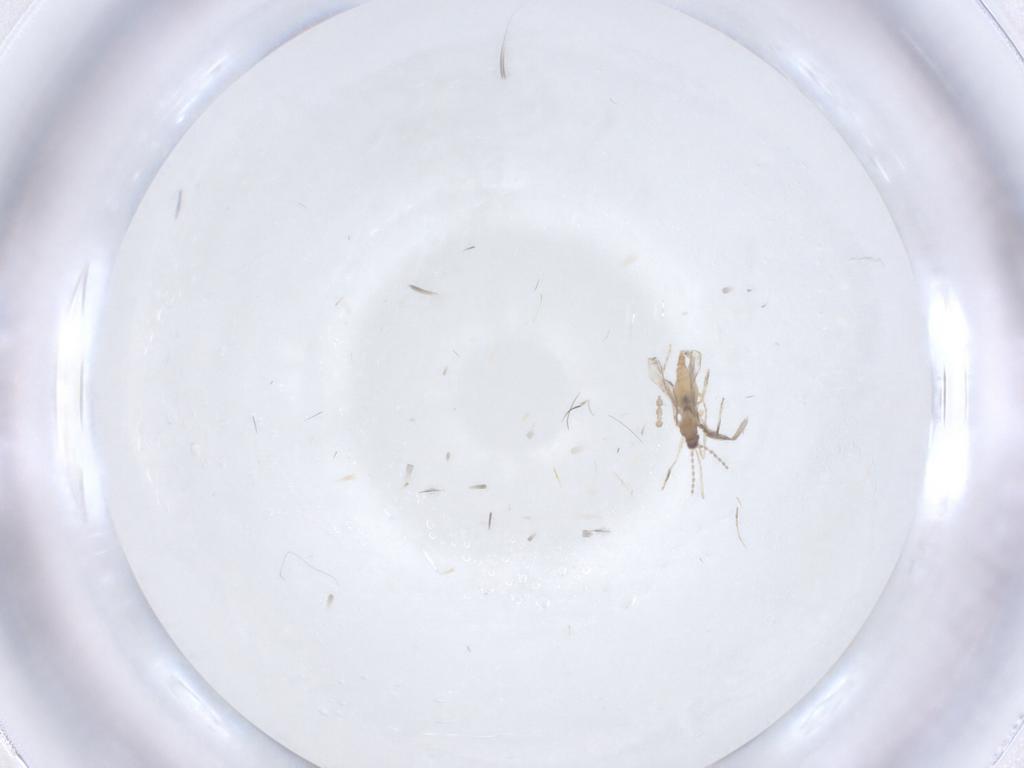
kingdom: Animalia
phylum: Arthropoda
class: Insecta
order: Diptera
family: Cecidomyiidae
